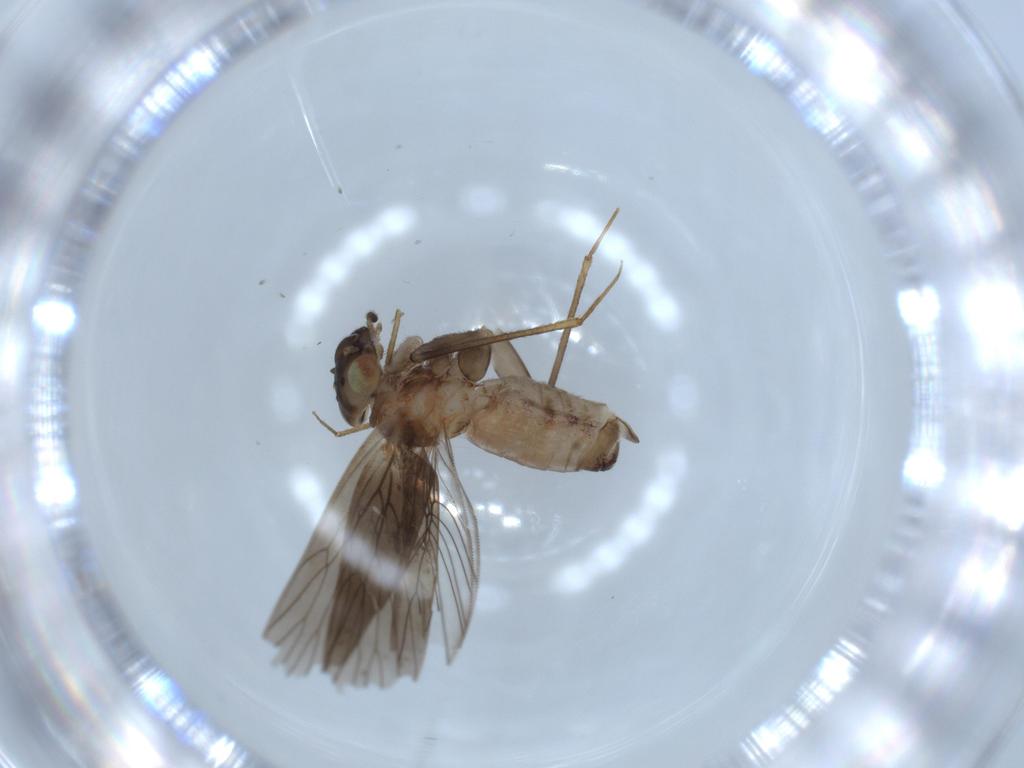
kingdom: Animalia
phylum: Arthropoda
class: Insecta
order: Psocodea
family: Lepidopsocidae
